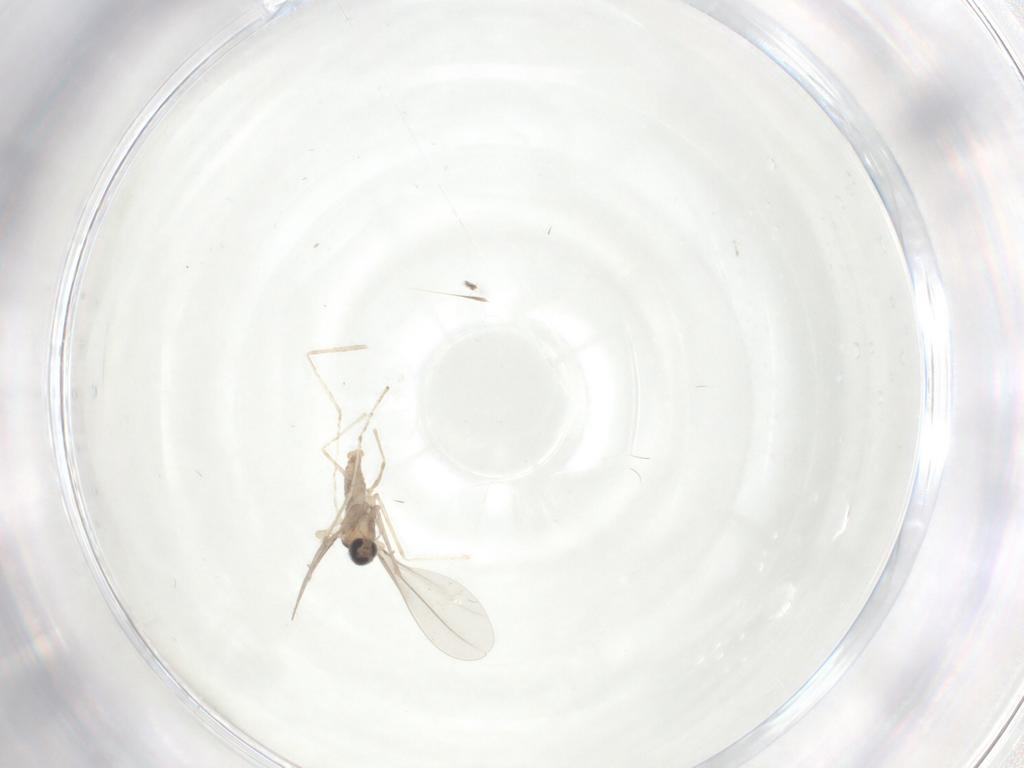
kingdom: Animalia
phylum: Arthropoda
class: Insecta
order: Diptera
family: Cecidomyiidae
